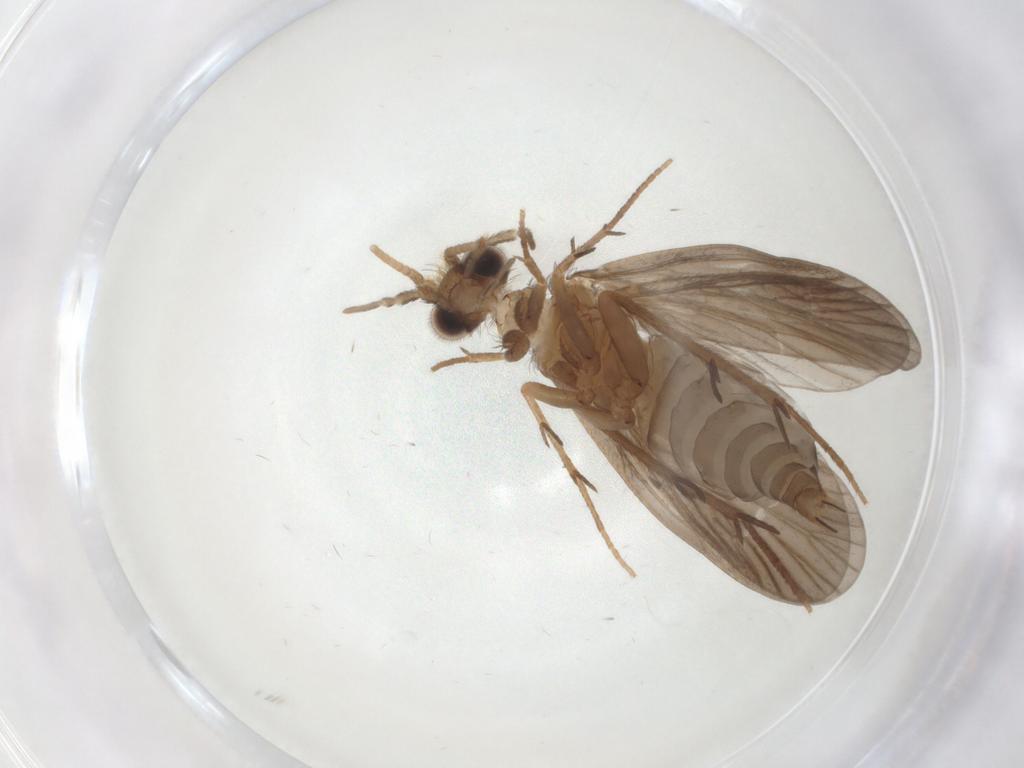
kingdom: Animalia
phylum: Arthropoda
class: Insecta
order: Trichoptera
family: Philopotamidae
